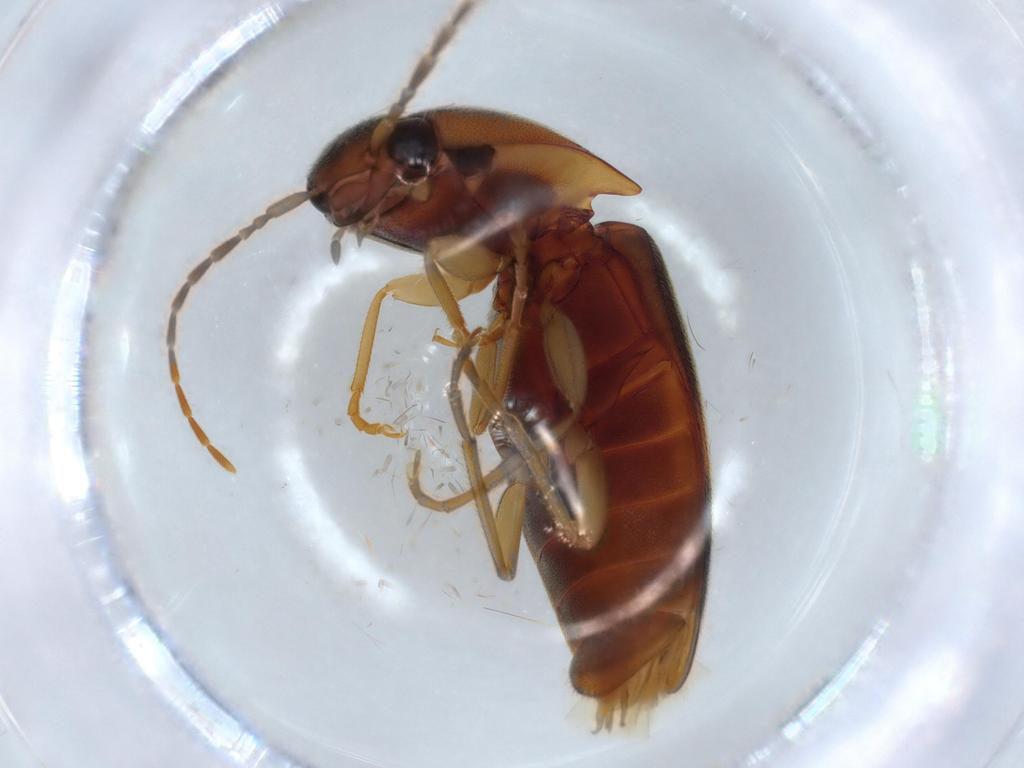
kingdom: Animalia
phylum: Arthropoda
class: Insecta
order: Coleoptera
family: Elateridae
